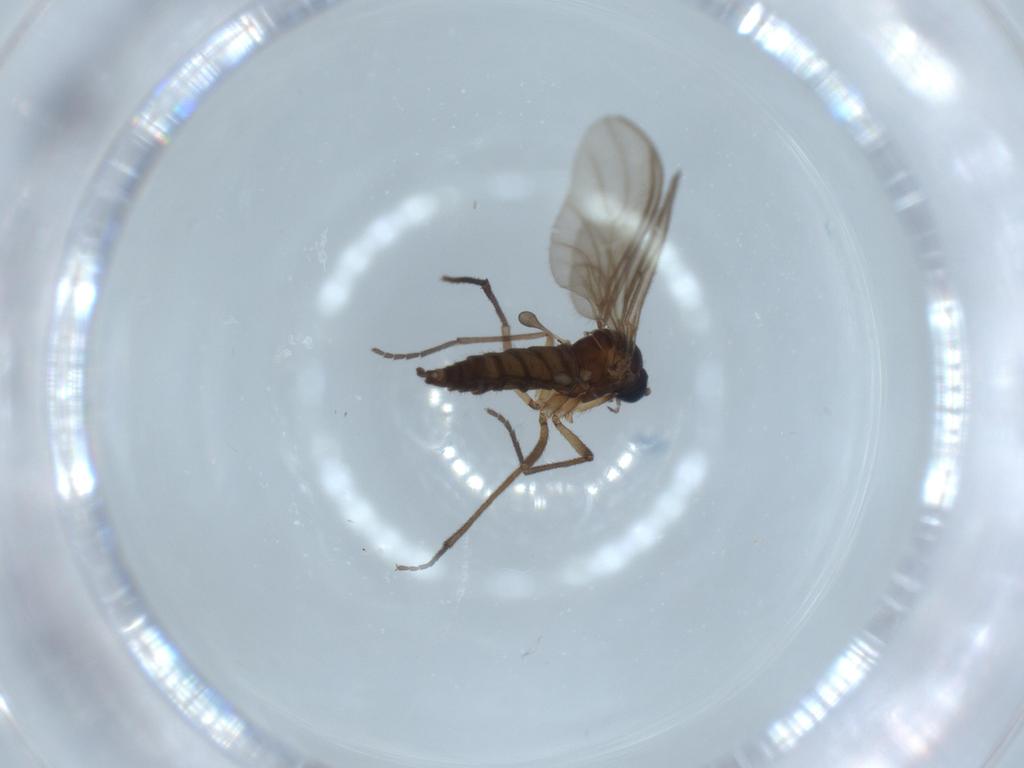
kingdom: Animalia
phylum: Arthropoda
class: Insecta
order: Diptera
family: Sciaridae
